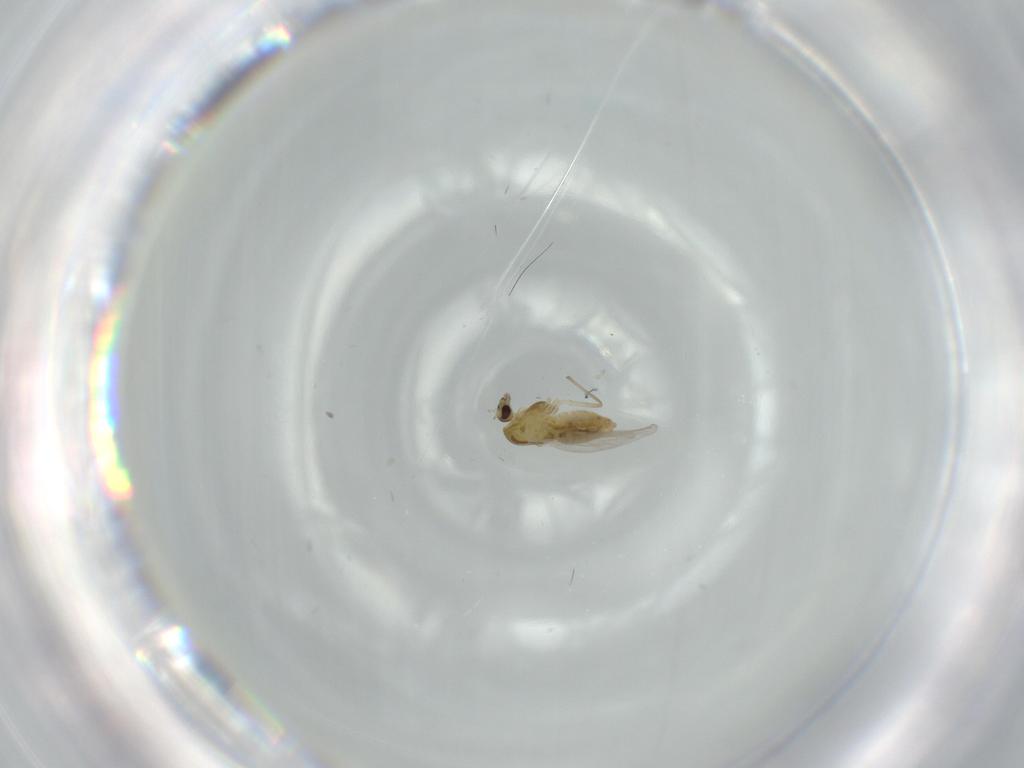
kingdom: Animalia
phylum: Arthropoda
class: Insecta
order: Diptera
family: Chironomidae
